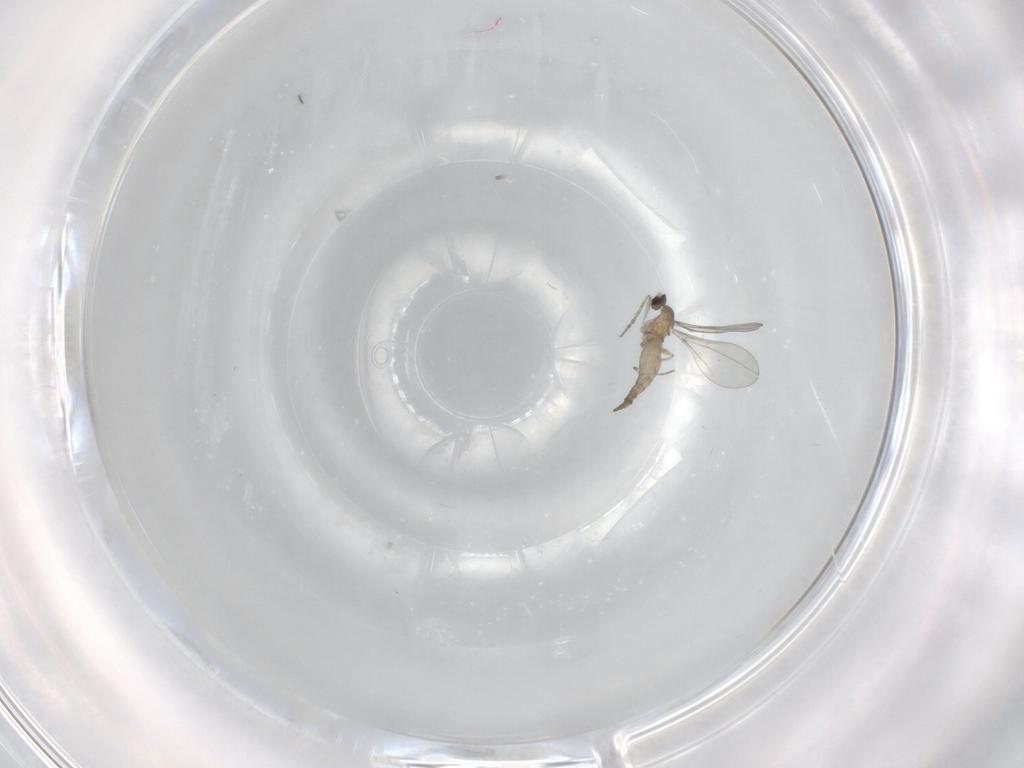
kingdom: Animalia
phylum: Arthropoda
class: Insecta
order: Diptera
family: Cecidomyiidae
